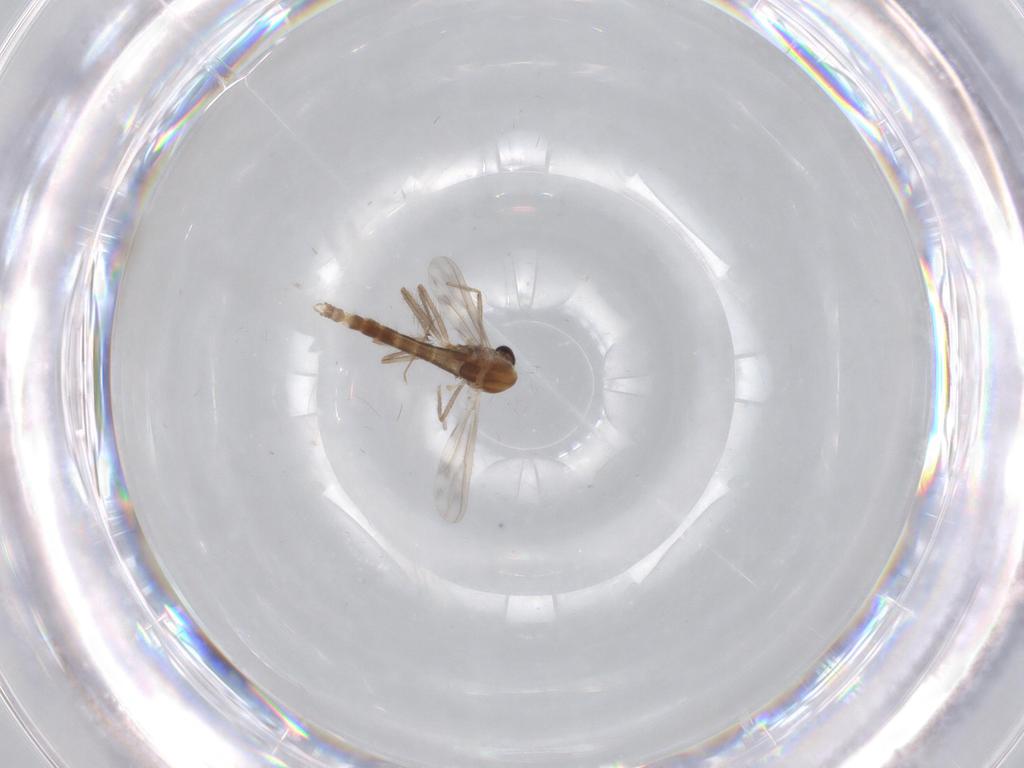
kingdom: Animalia
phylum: Arthropoda
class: Insecta
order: Diptera
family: Chironomidae
